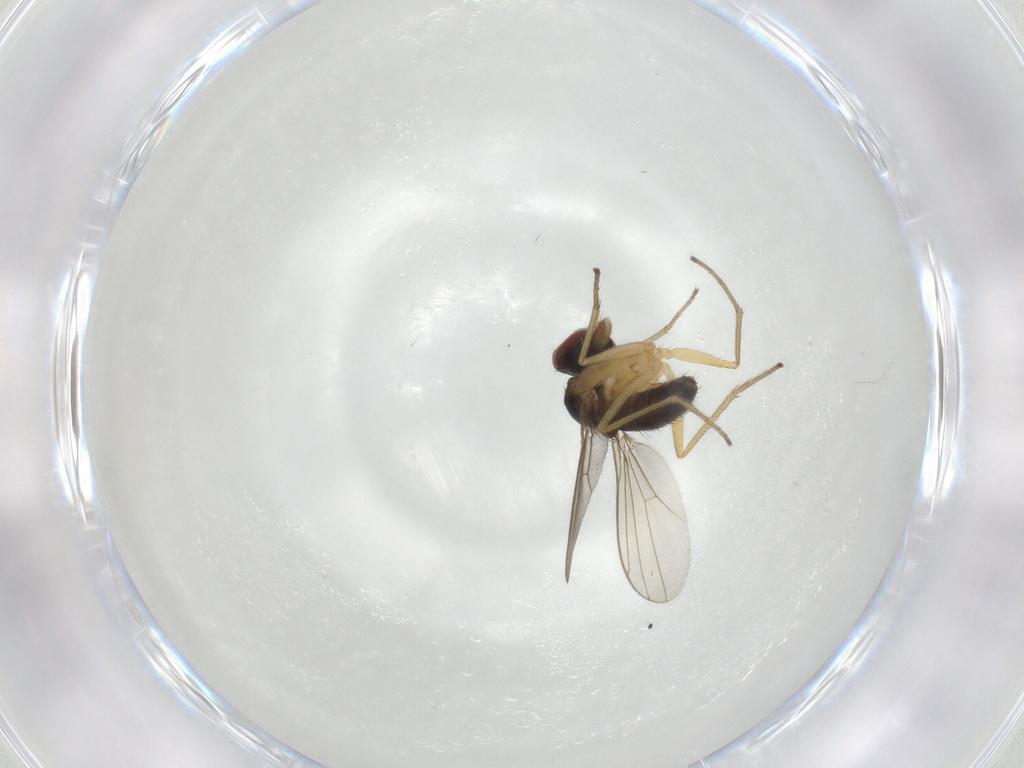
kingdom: Animalia
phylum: Arthropoda
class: Insecta
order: Diptera
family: Dolichopodidae
